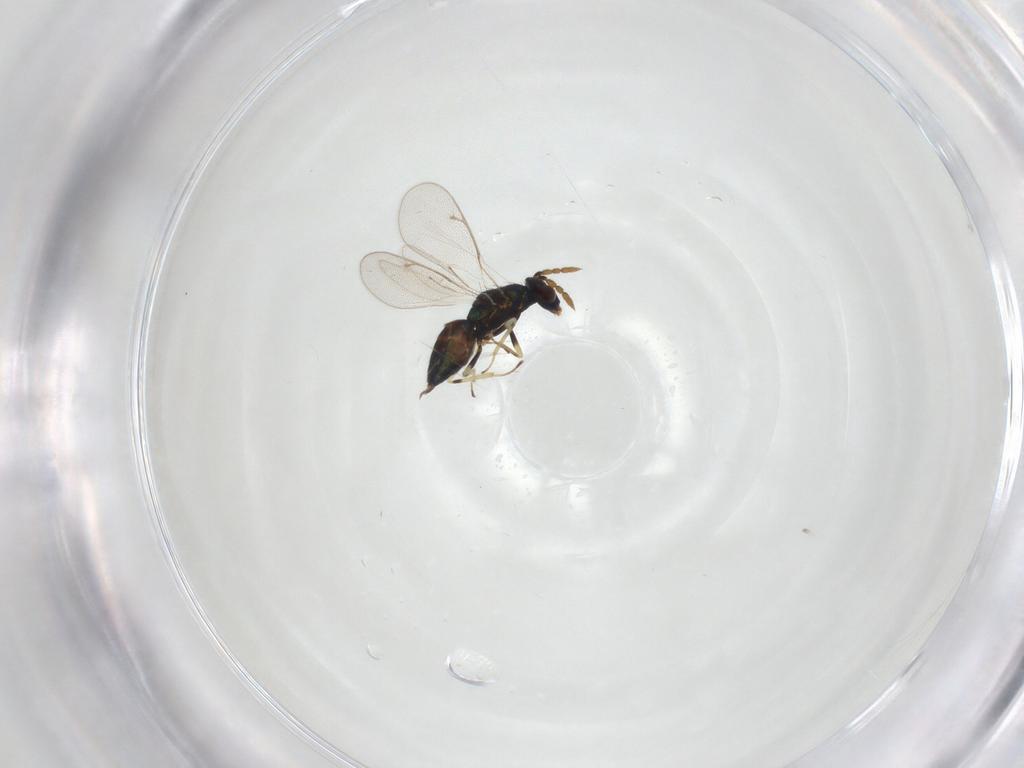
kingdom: Animalia
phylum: Arthropoda
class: Insecta
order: Hymenoptera
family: Eulophidae
